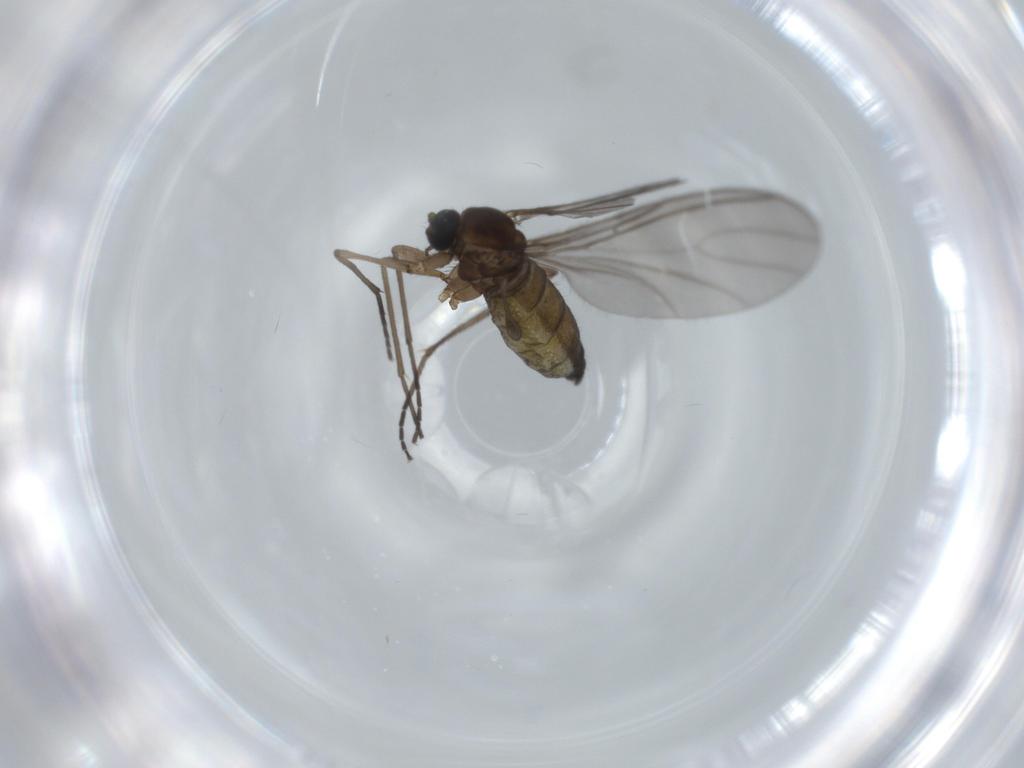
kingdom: Animalia
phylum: Arthropoda
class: Insecta
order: Diptera
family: Sciaridae
